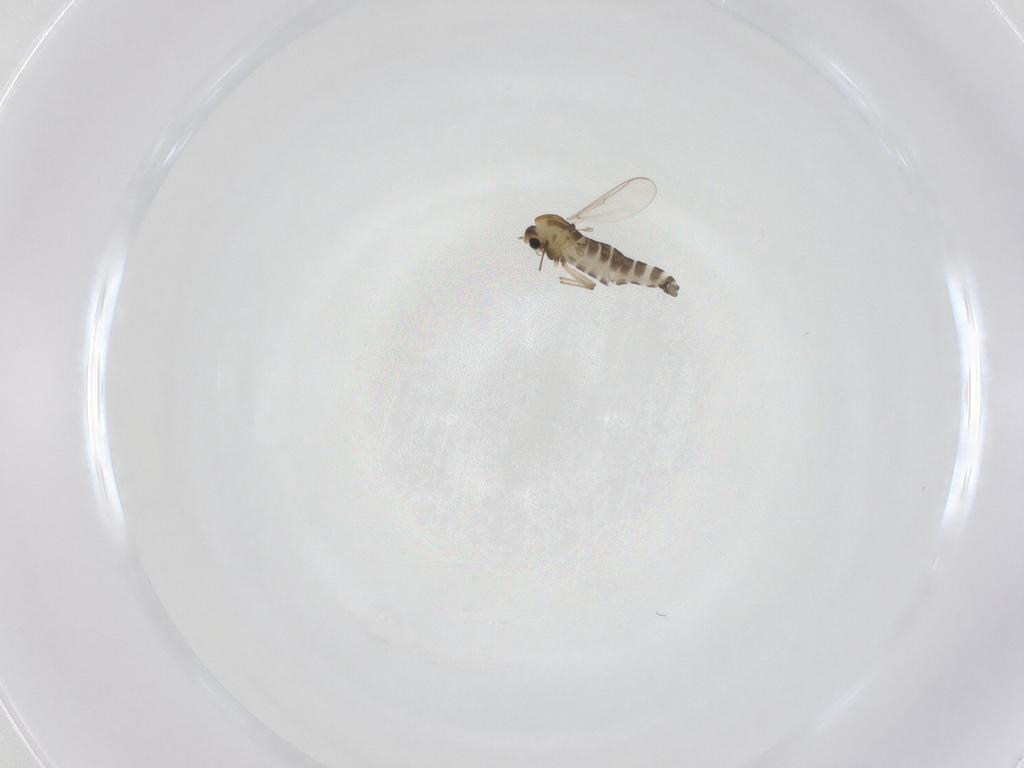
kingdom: Animalia
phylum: Arthropoda
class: Insecta
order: Diptera
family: Chironomidae
